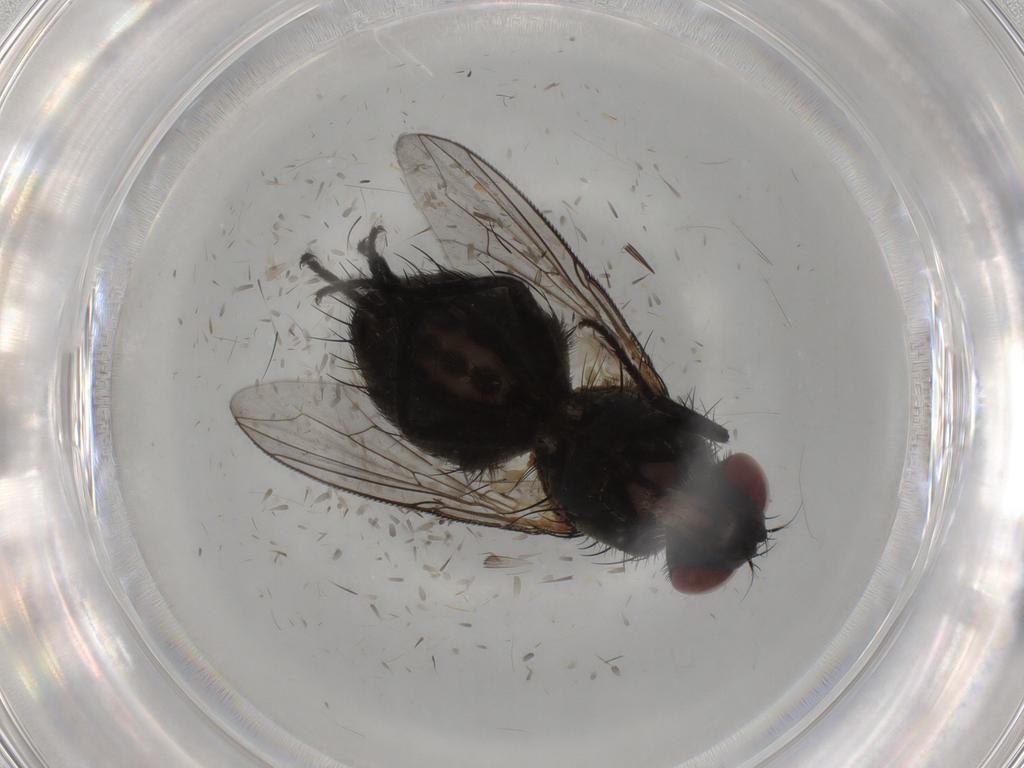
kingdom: Animalia
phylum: Arthropoda
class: Insecta
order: Diptera
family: Sarcophagidae
